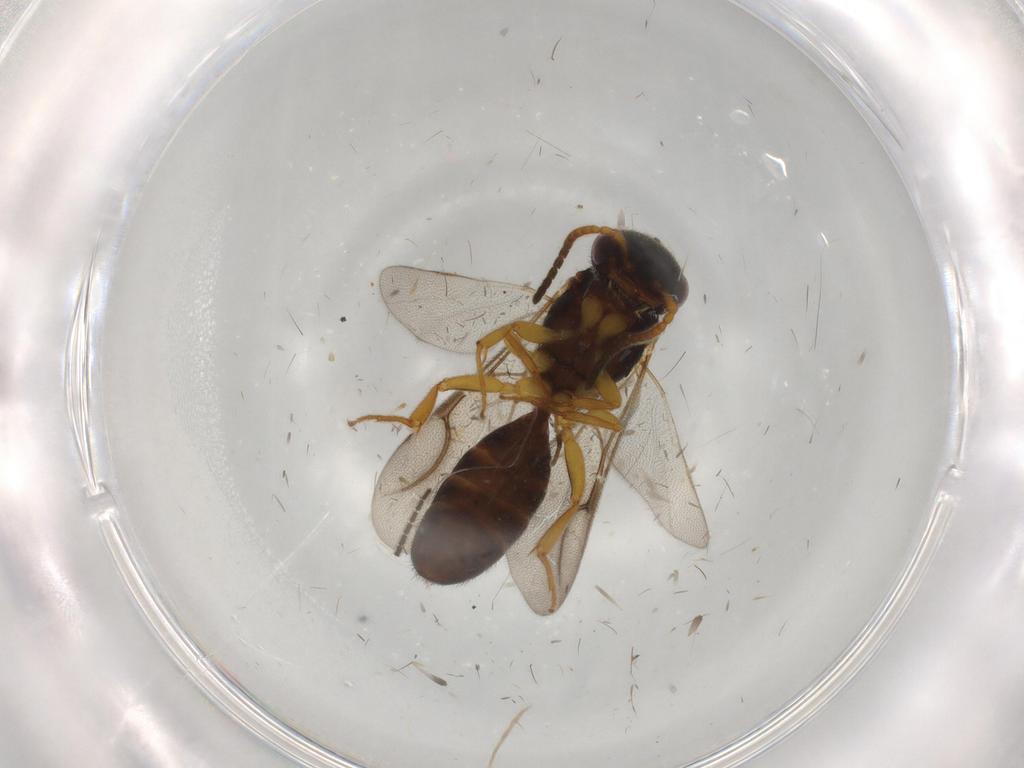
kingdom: Animalia
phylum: Arthropoda
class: Insecta
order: Hymenoptera
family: Bethylidae
